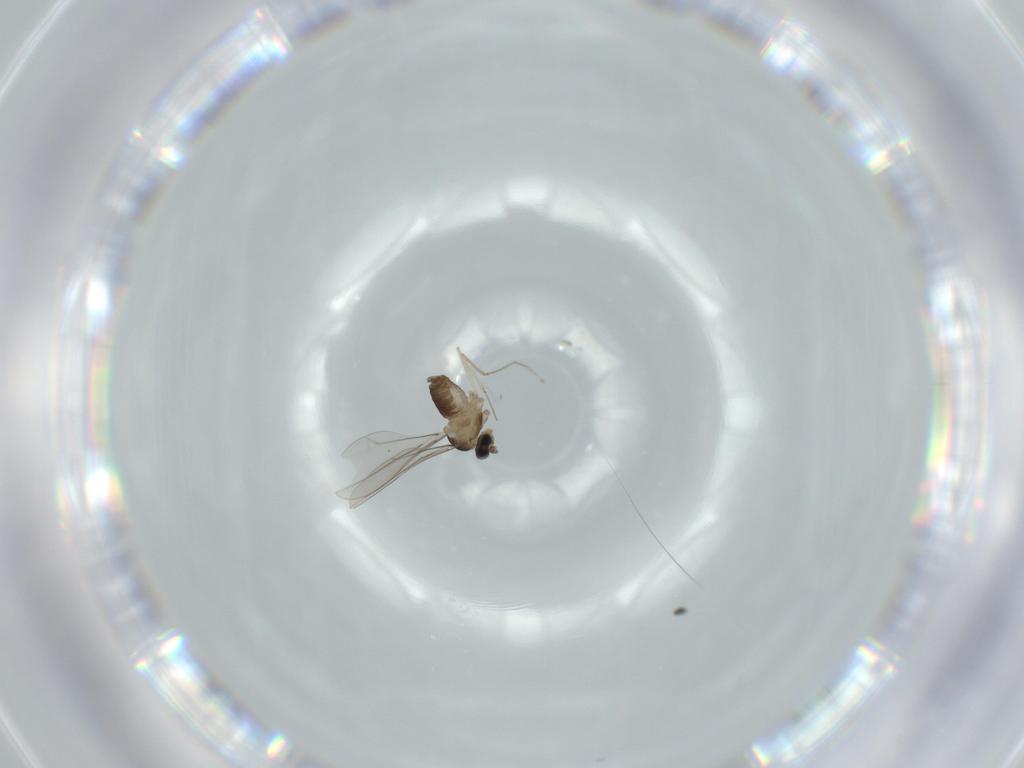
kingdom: Animalia
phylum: Arthropoda
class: Insecta
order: Diptera
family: Cecidomyiidae
